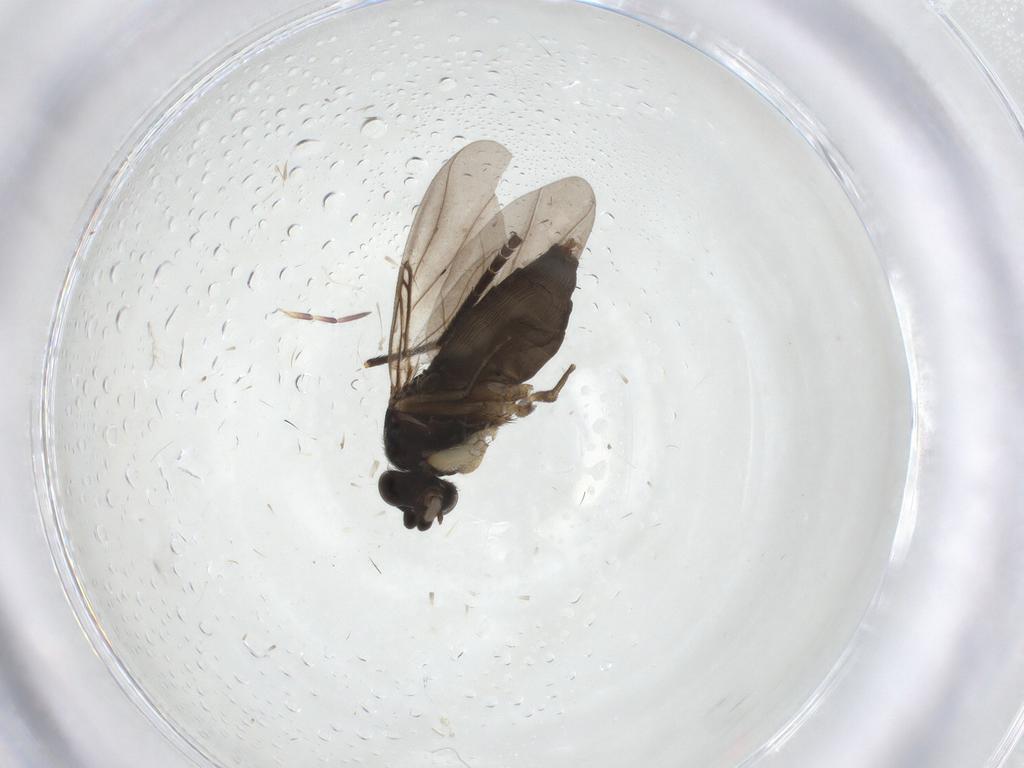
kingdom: Animalia
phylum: Arthropoda
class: Insecta
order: Diptera
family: Phoridae
